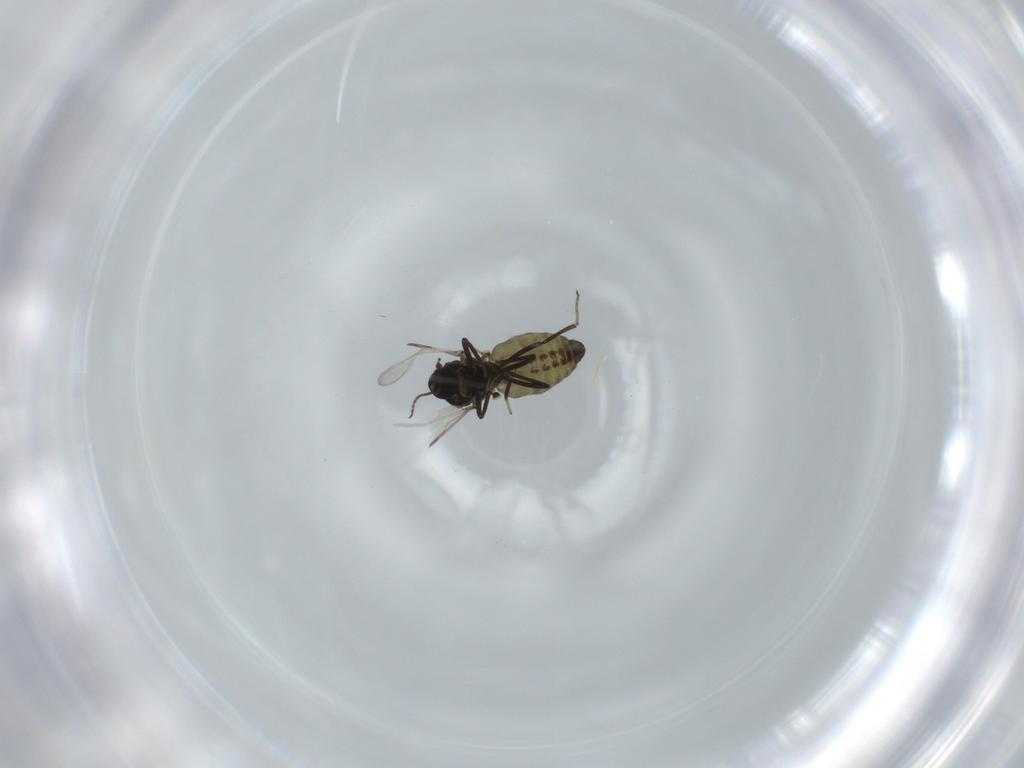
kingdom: Animalia
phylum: Arthropoda
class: Insecta
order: Diptera
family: Ceratopogonidae
